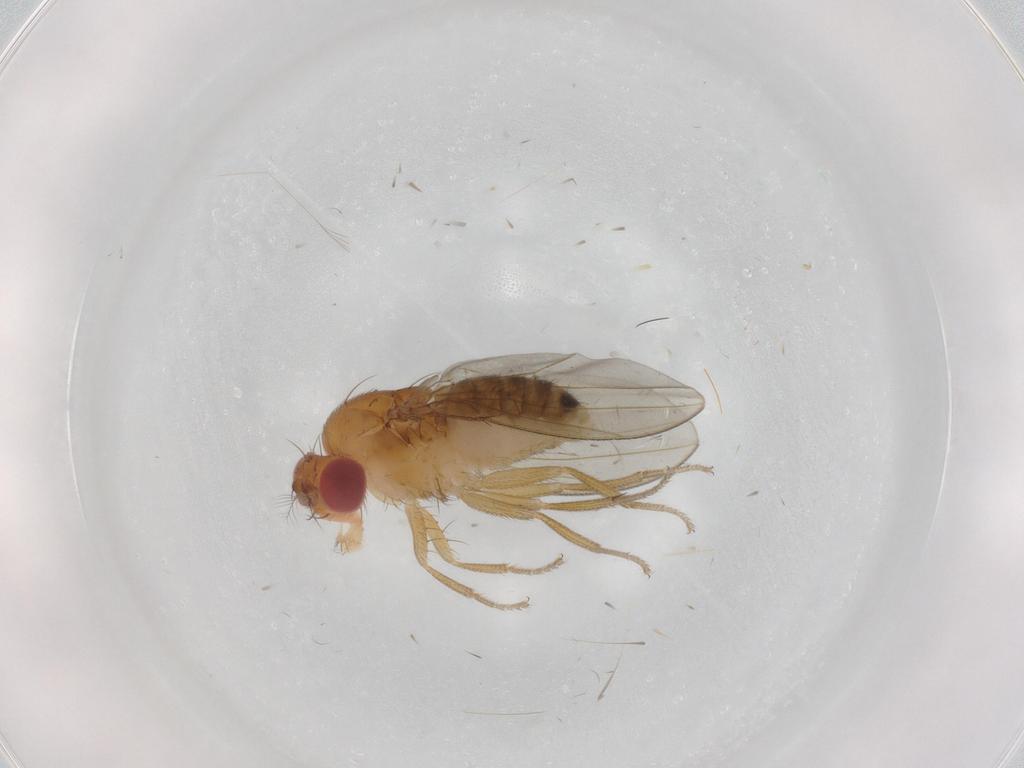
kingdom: Animalia
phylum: Arthropoda
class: Insecta
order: Diptera
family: Drosophilidae
